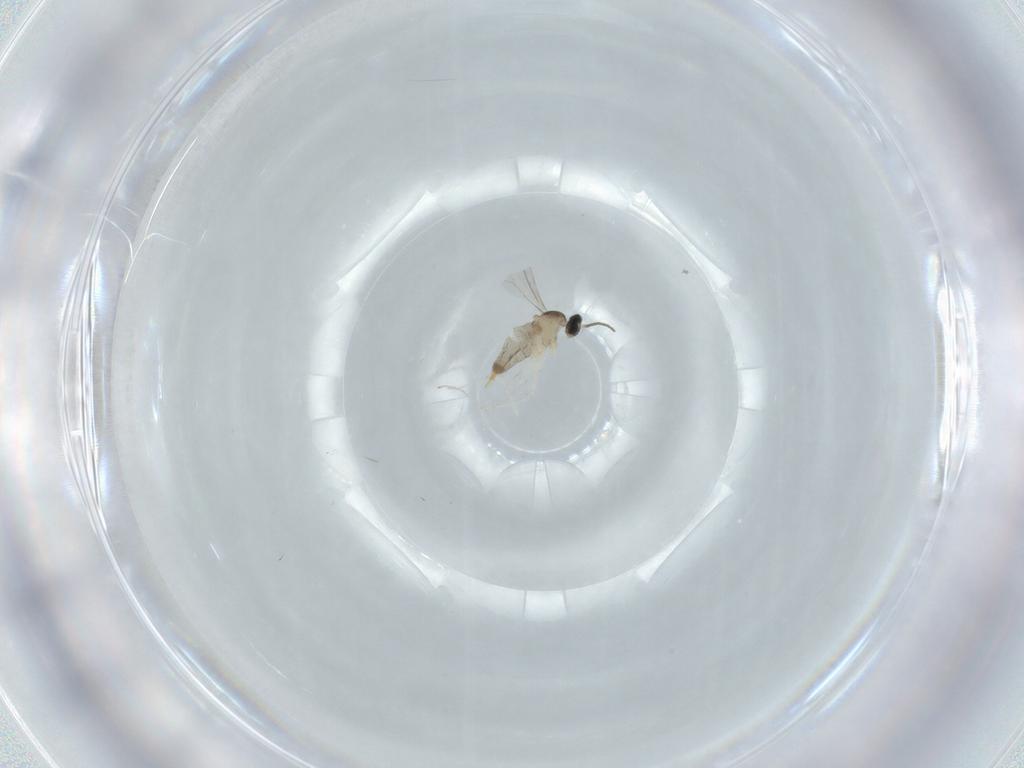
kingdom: Animalia
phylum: Arthropoda
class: Insecta
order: Diptera
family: Cecidomyiidae
